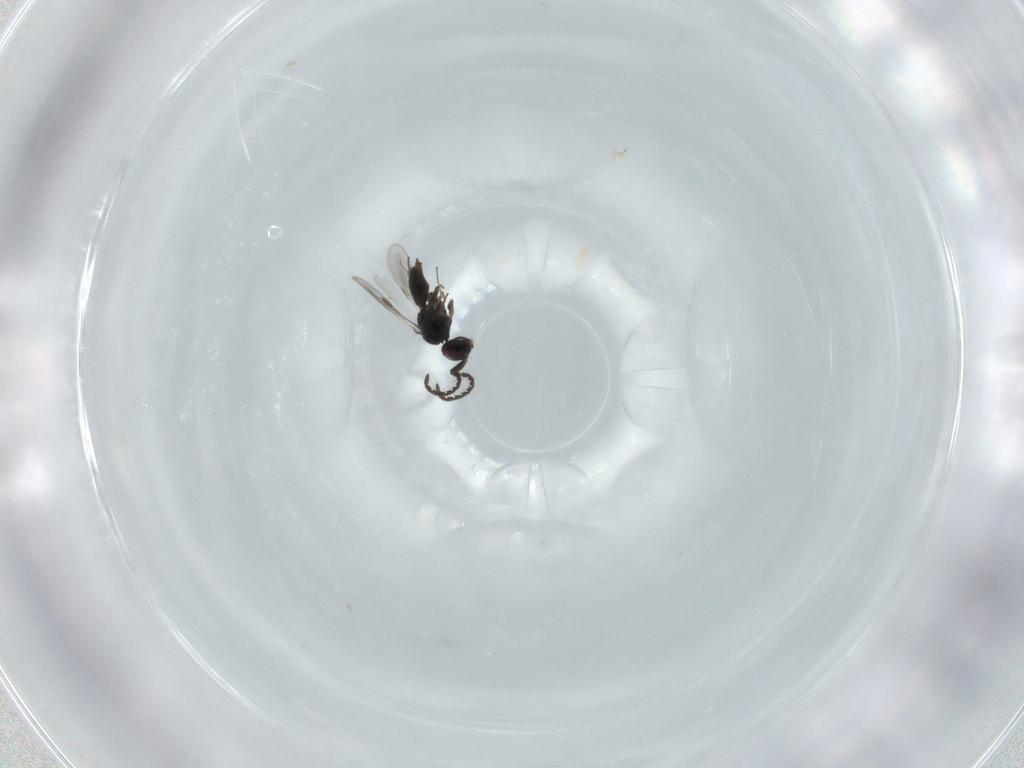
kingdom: Animalia
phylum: Arthropoda
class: Insecta
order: Hymenoptera
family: Megaspilidae
